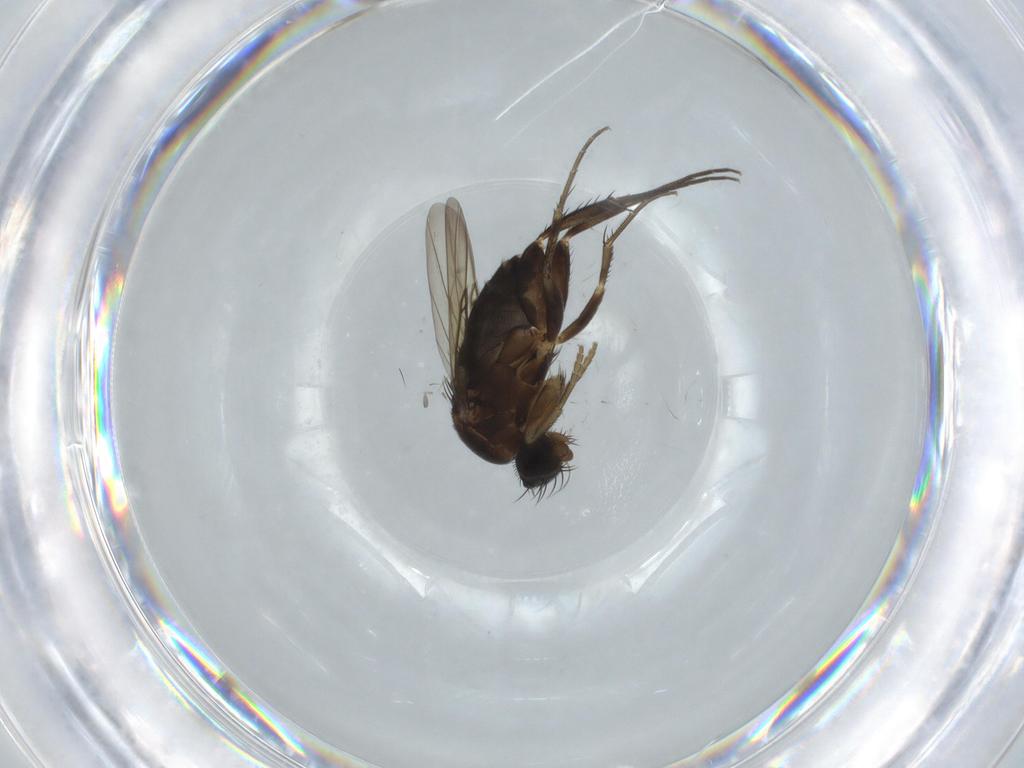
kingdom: Animalia
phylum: Arthropoda
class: Insecta
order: Diptera
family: Phoridae
